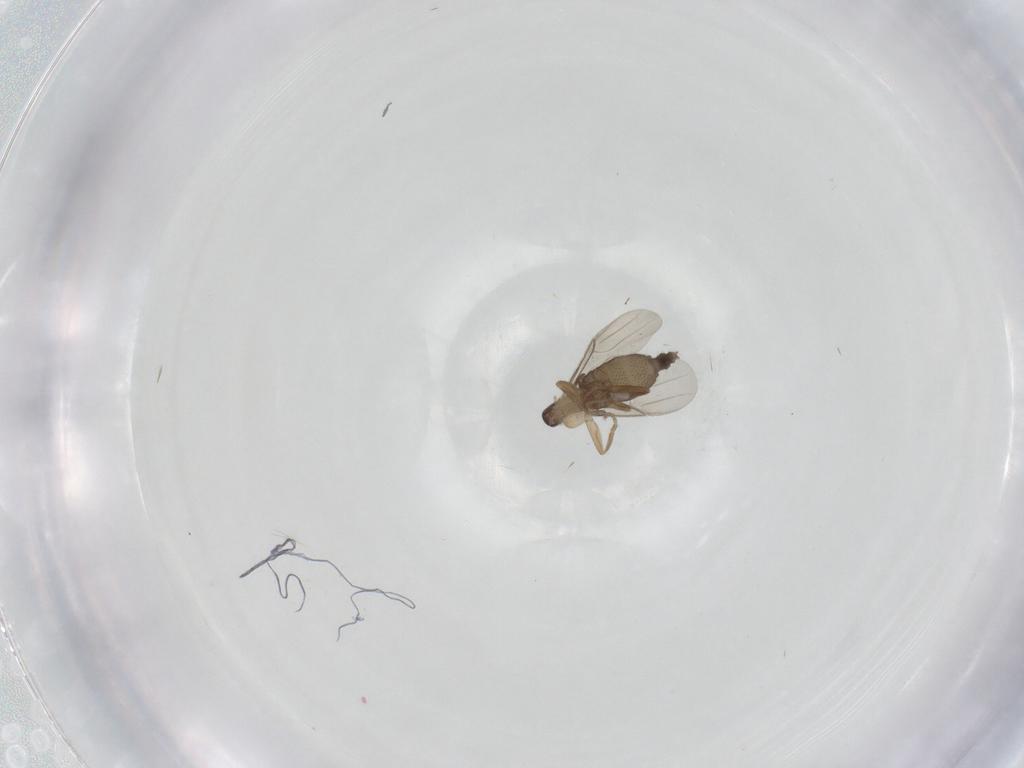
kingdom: Animalia
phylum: Arthropoda
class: Insecta
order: Diptera
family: Phoridae
